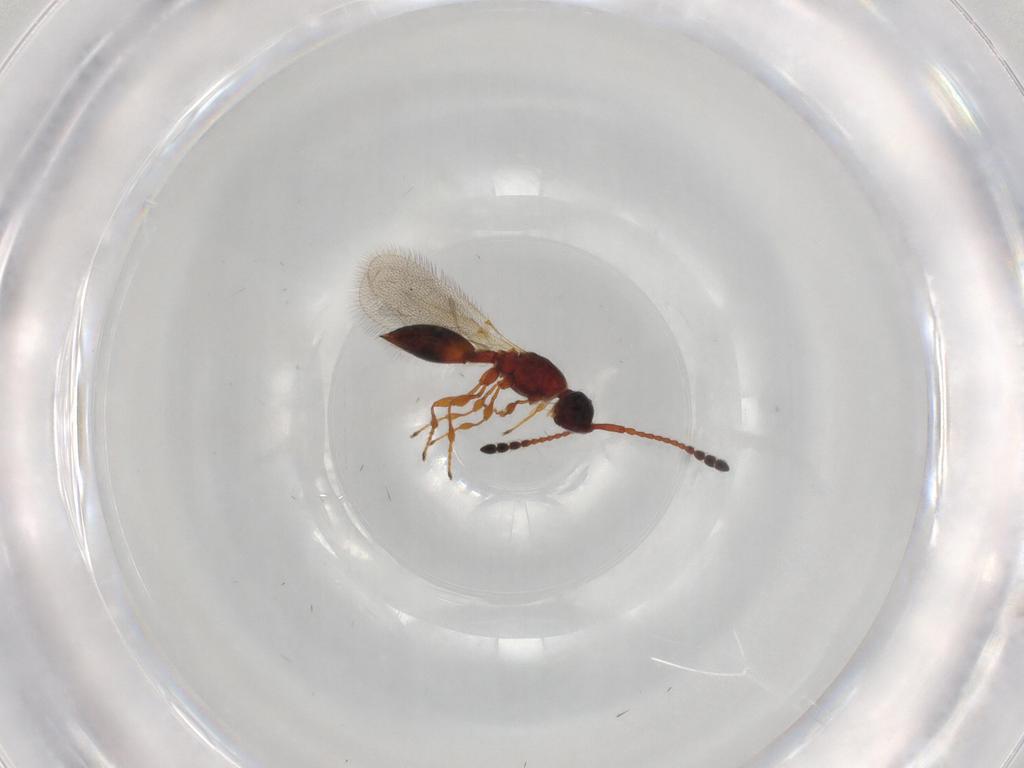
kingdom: Animalia
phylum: Arthropoda
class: Insecta
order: Hymenoptera
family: Diapriidae
